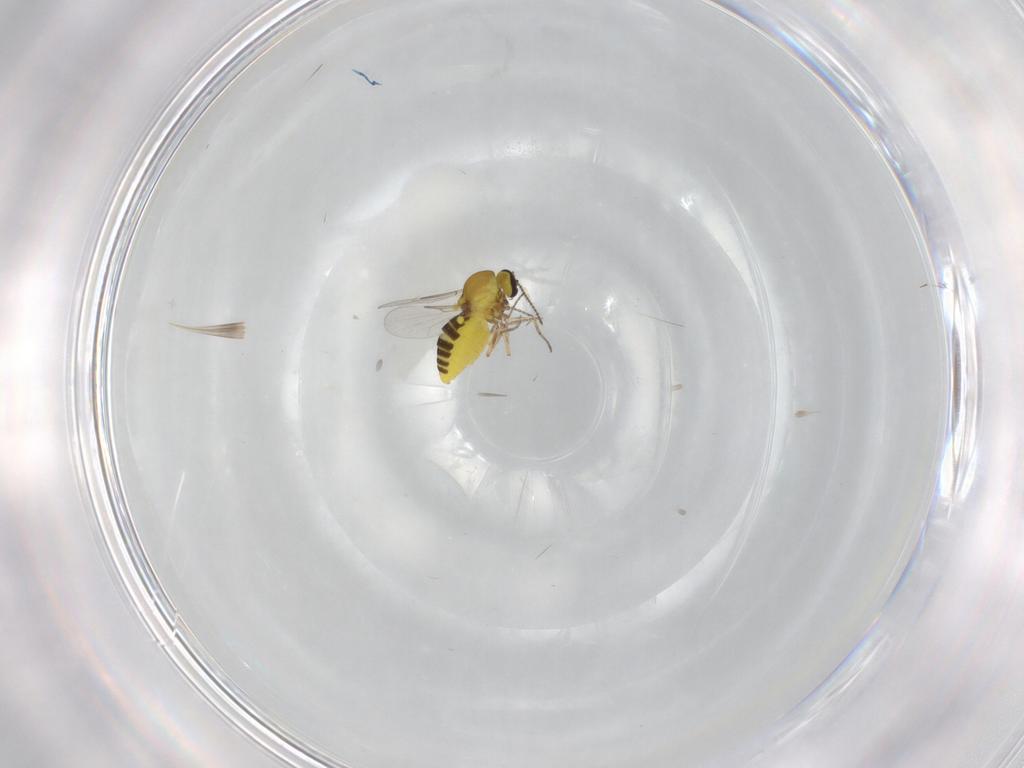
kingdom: Animalia
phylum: Arthropoda
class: Insecta
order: Diptera
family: Ceratopogonidae
